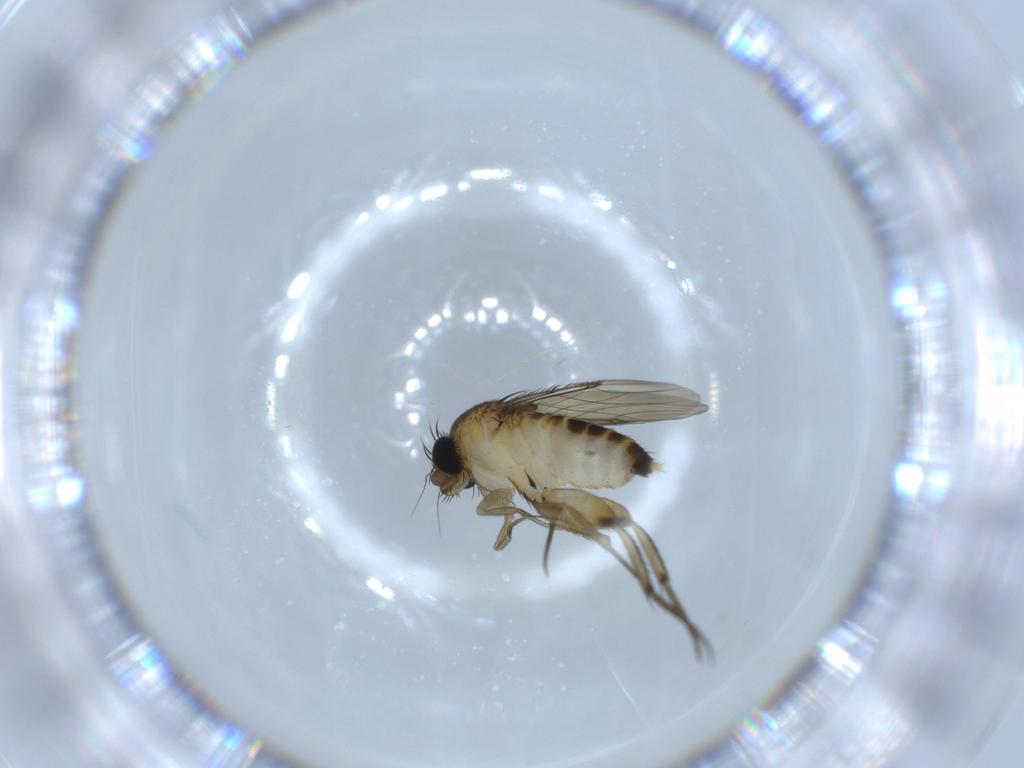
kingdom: Animalia
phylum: Arthropoda
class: Insecta
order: Diptera
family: Phoridae
